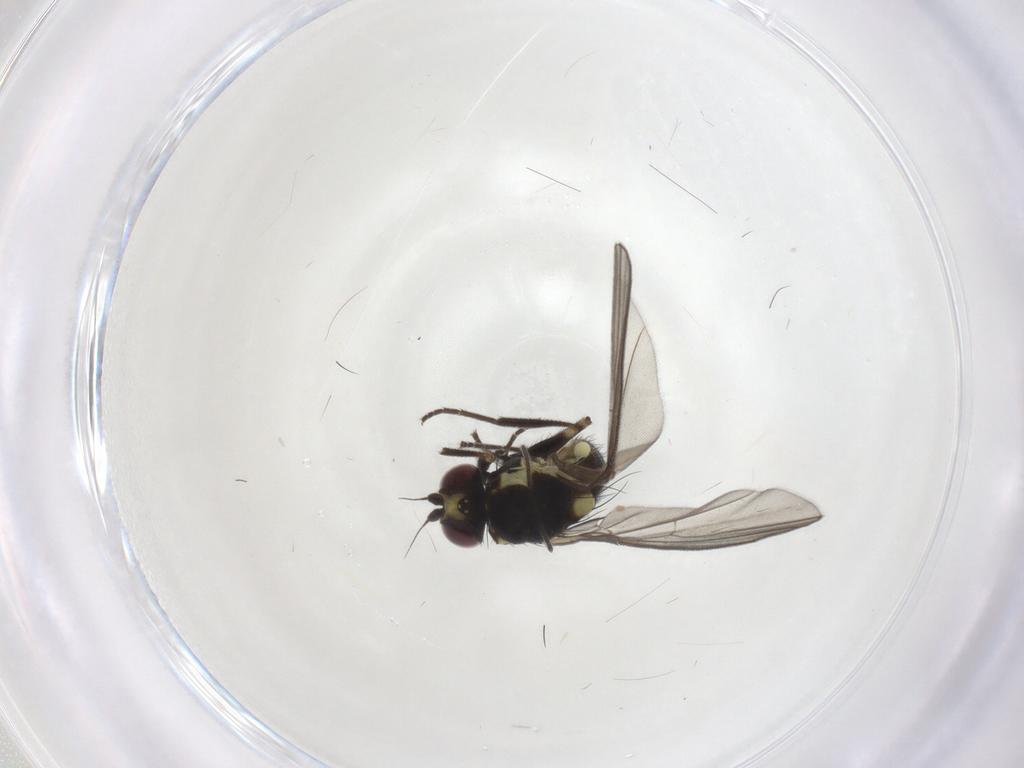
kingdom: Animalia
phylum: Arthropoda
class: Insecta
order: Diptera
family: Agromyzidae
